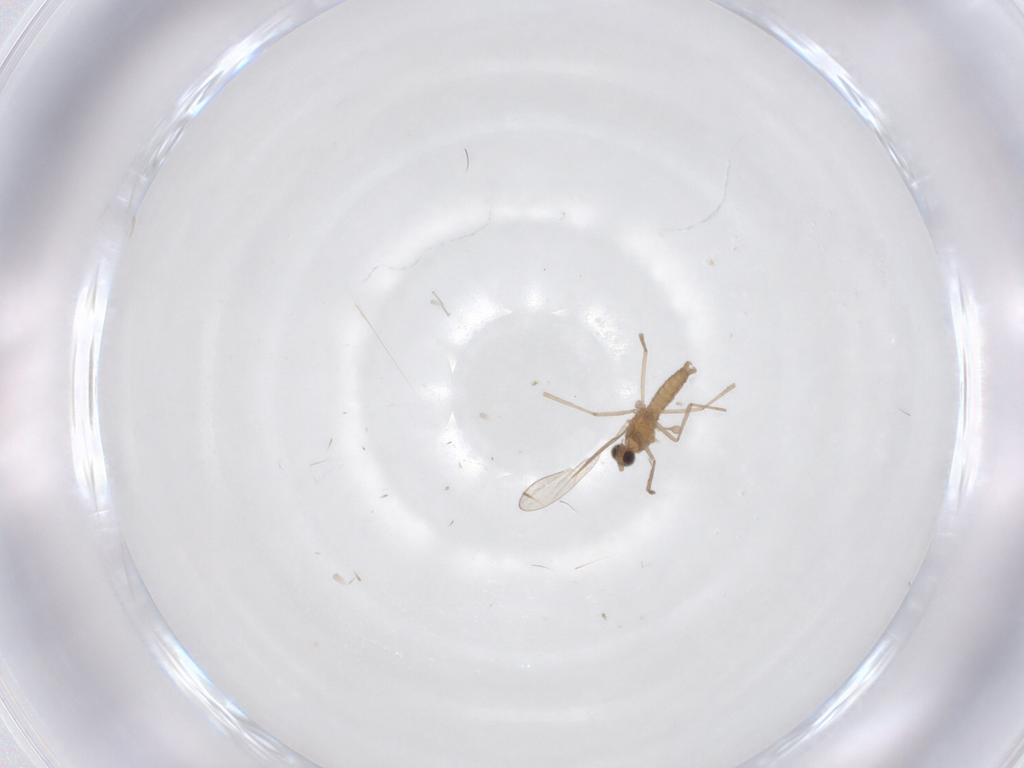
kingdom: Animalia
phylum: Arthropoda
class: Insecta
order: Diptera
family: Cecidomyiidae
